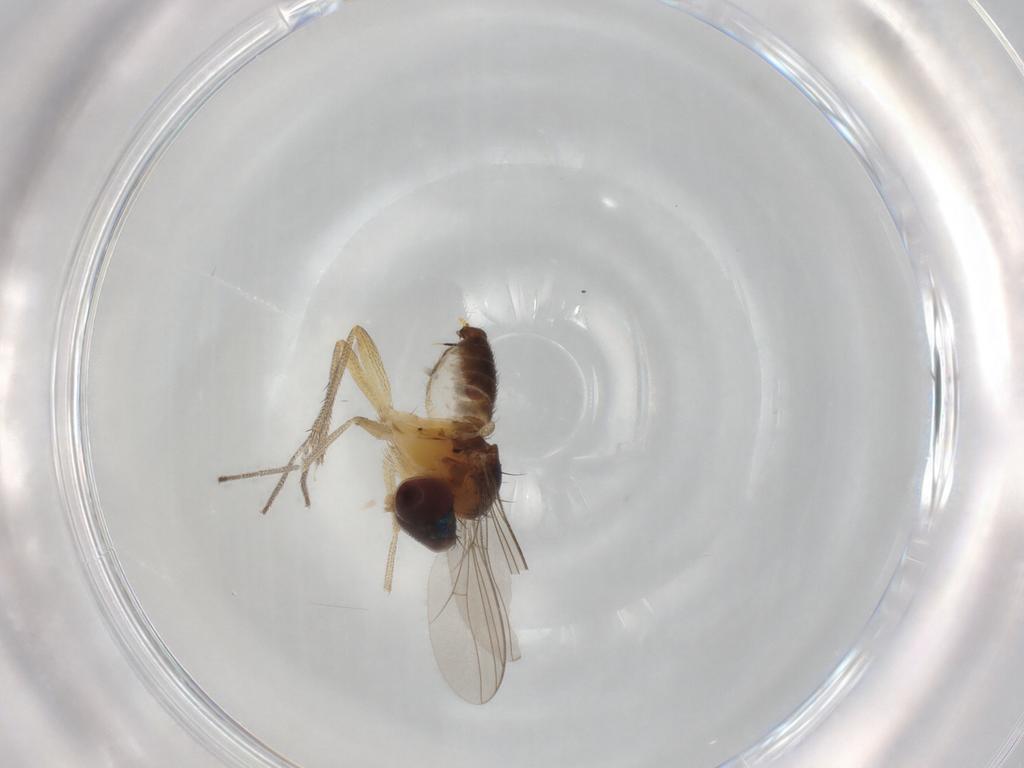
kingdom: Animalia
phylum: Arthropoda
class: Insecta
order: Diptera
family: Dolichopodidae
